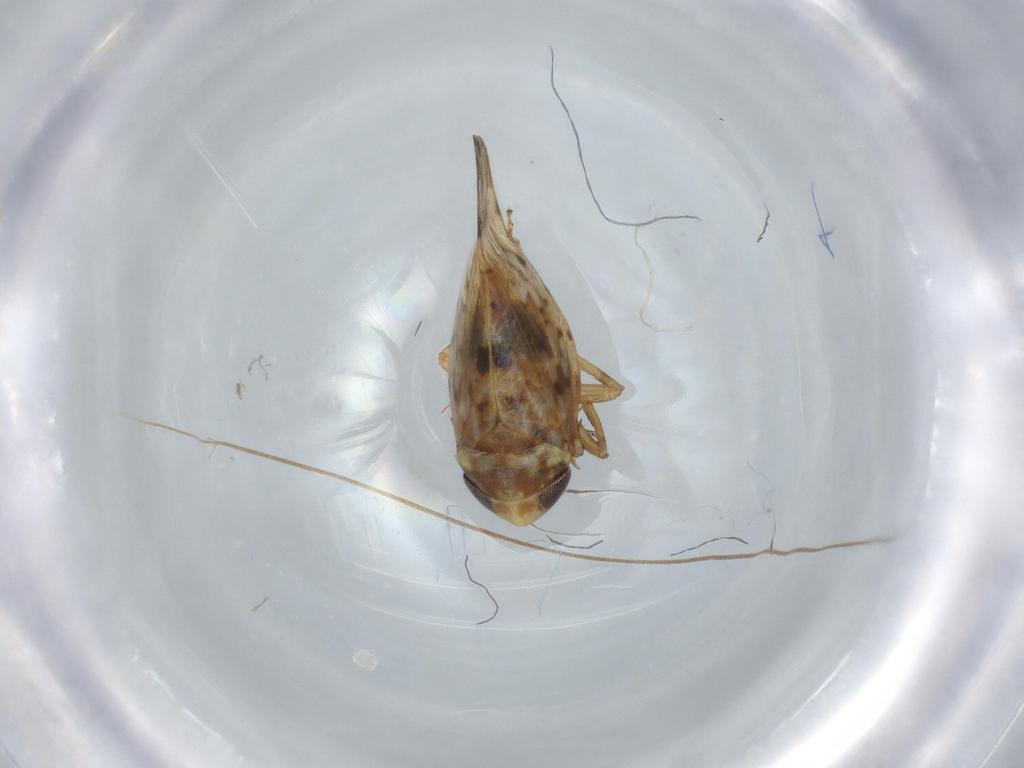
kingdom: Animalia
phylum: Arthropoda
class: Insecta
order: Hemiptera
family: Cicadellidae
